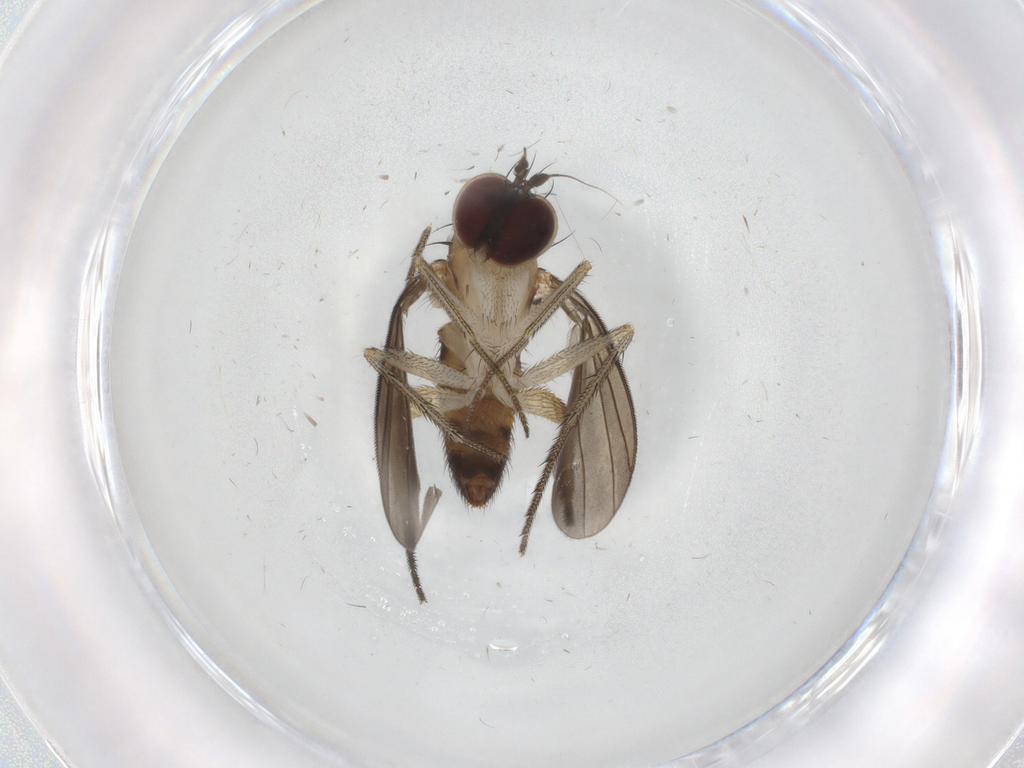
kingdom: Animalia
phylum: Arthropoda
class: Insecta
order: Diptera
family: Dolichopodidae
